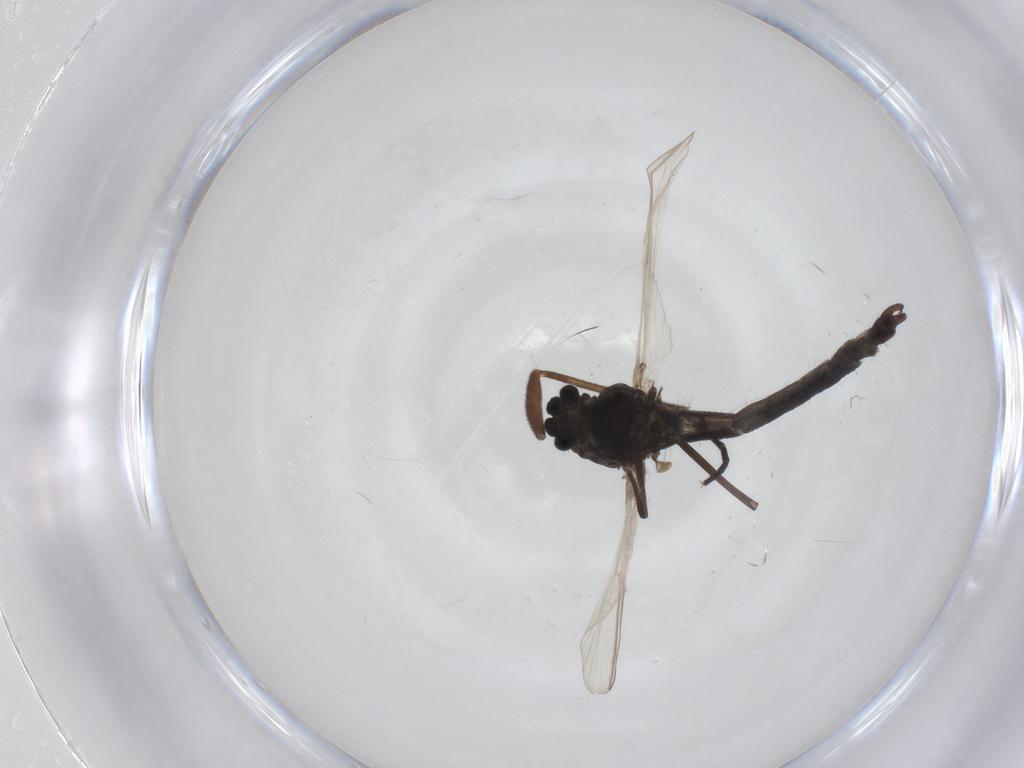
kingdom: Animalia
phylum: Arthropoda
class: Insecta
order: Diptera
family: Chironomidae
